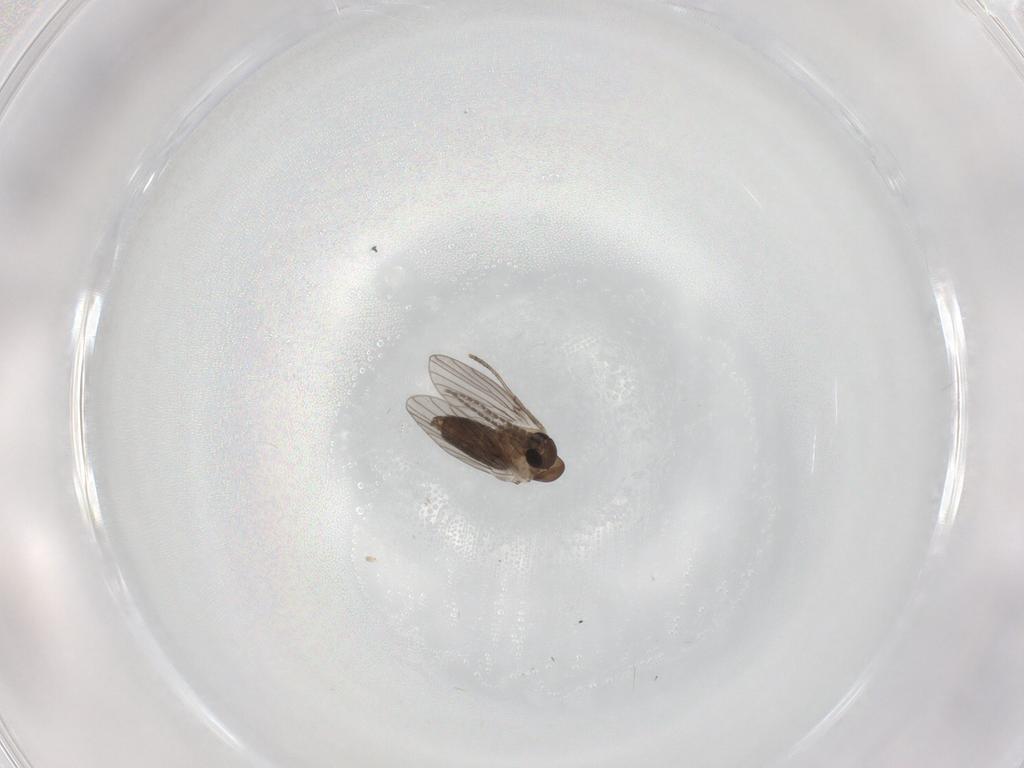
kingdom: Animalia
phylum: Arthropoda
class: Insecta
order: Diptera
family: Psychodidae
